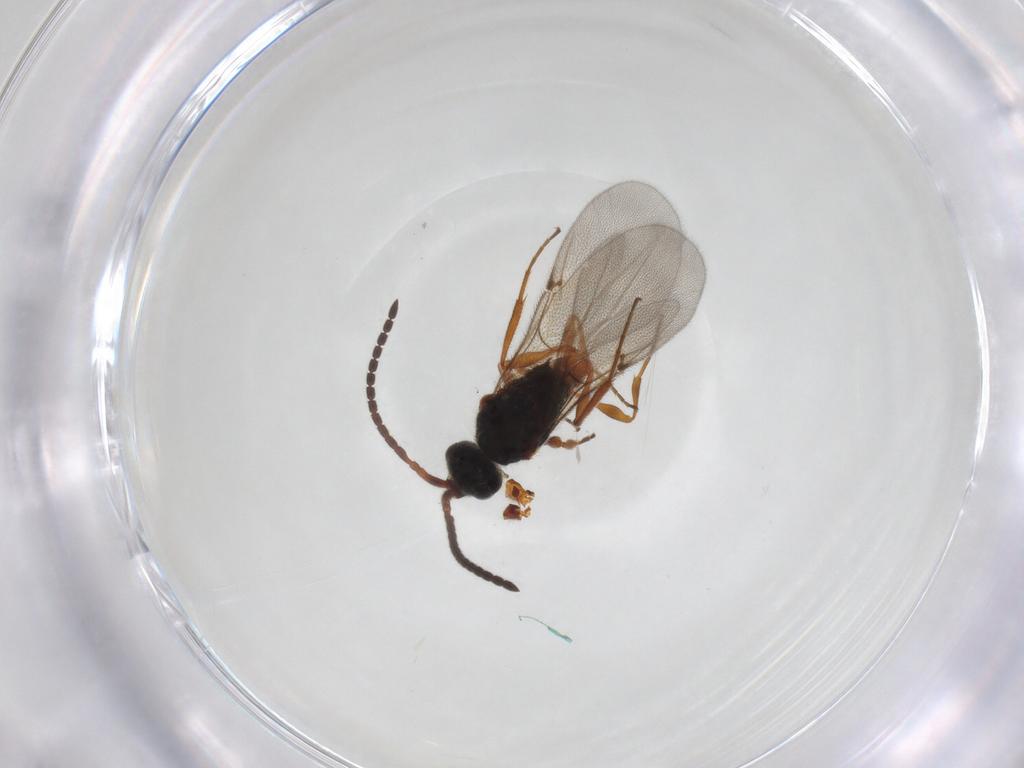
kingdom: Animalia
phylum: Arthropoda
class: Insecta
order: Hymenoptera
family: Diapriidae
